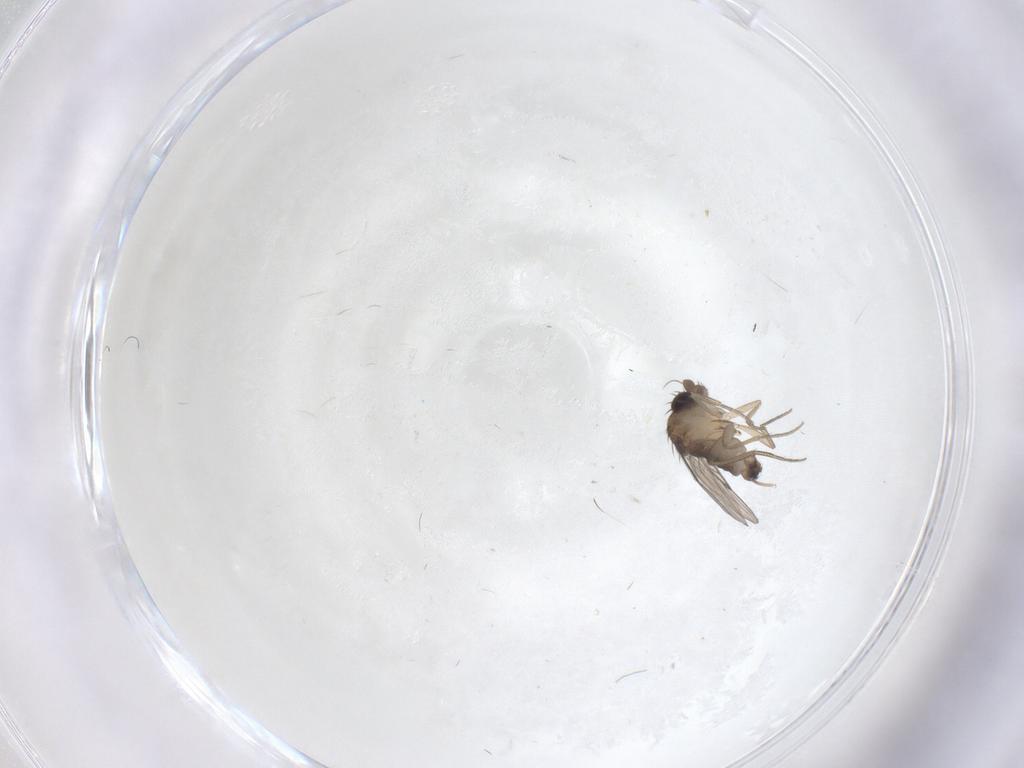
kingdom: Animalia
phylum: Arthropoda
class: Insecta
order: Diptera
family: Phoridae
